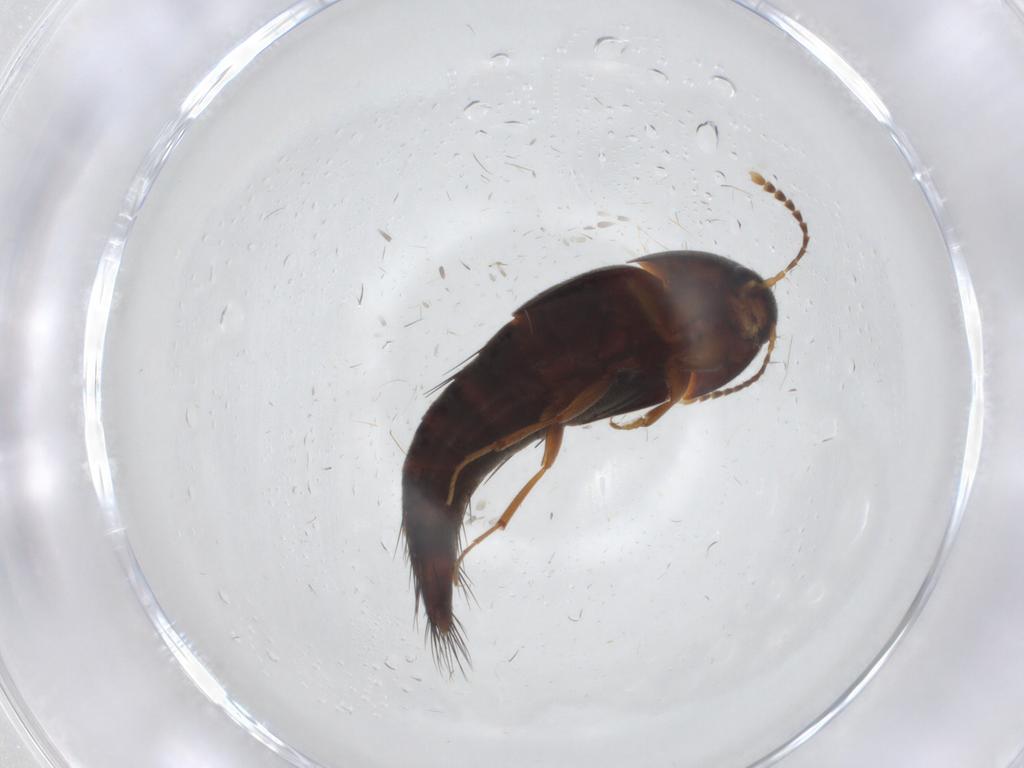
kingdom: Animalia
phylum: Arthropoda
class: Insecta
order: Coleoptera
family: Staphylinidae
